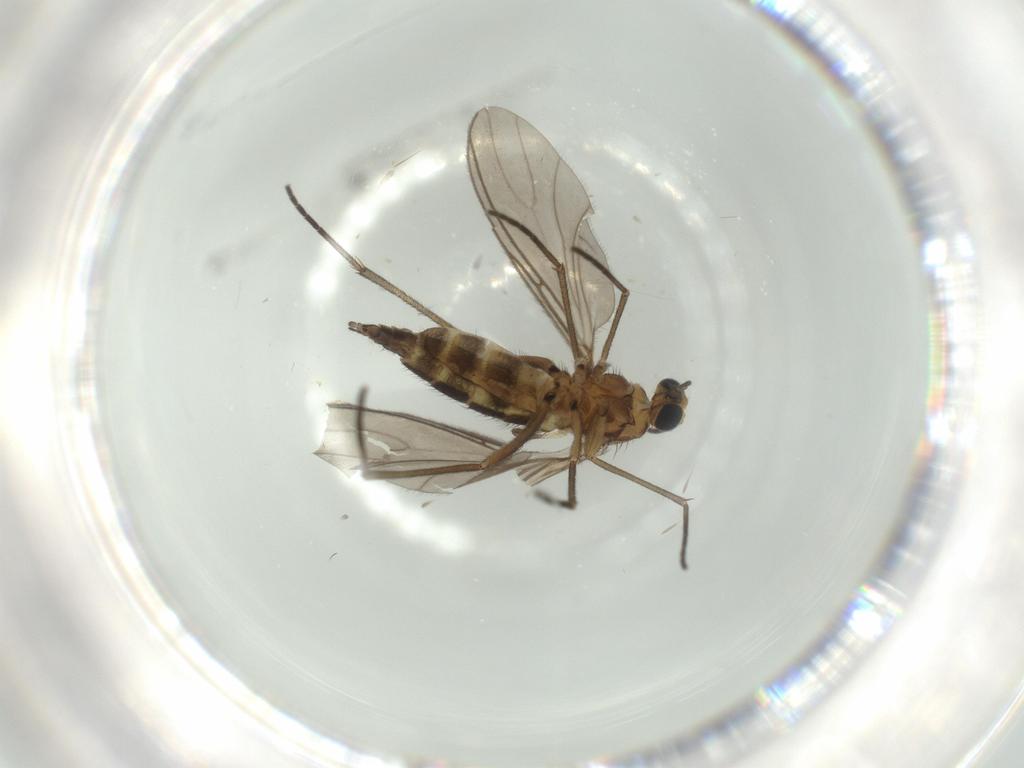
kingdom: Animalia
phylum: Arthropoda
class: Insecta
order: Diptera
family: Sciaridae
